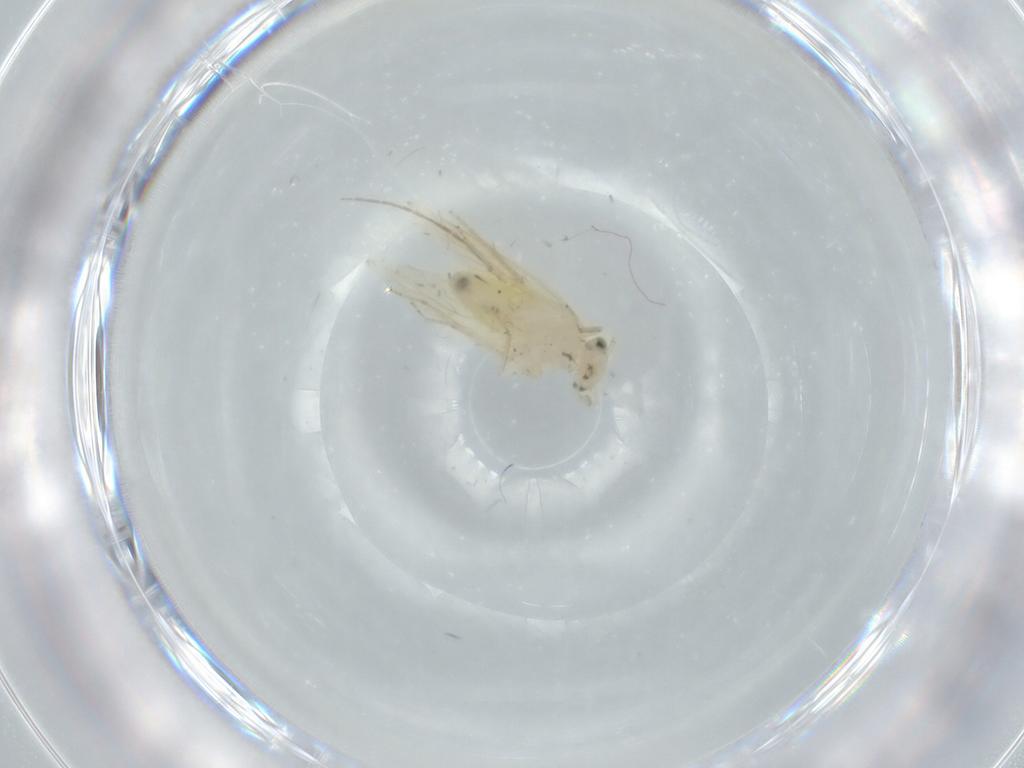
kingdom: Animalia
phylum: Arthropoda
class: Insecta
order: Psocodea
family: Lepidopsocidae
